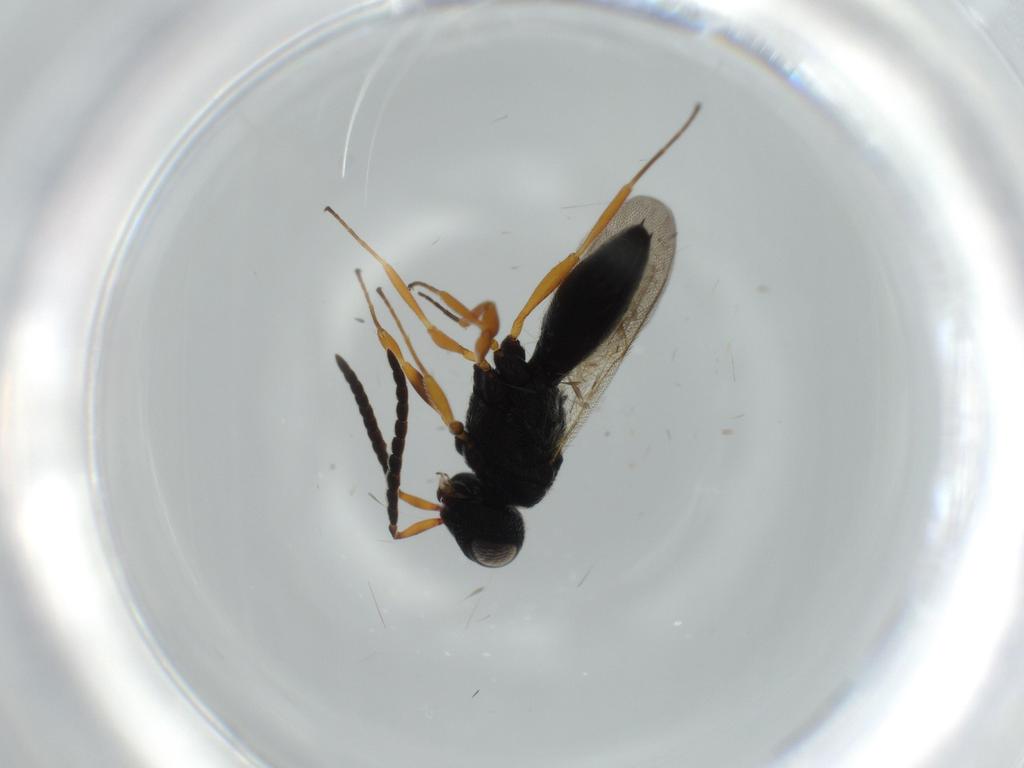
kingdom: Animalia
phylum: Arthropoda
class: Insecta
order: Hymenoptera
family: Scelionidae
